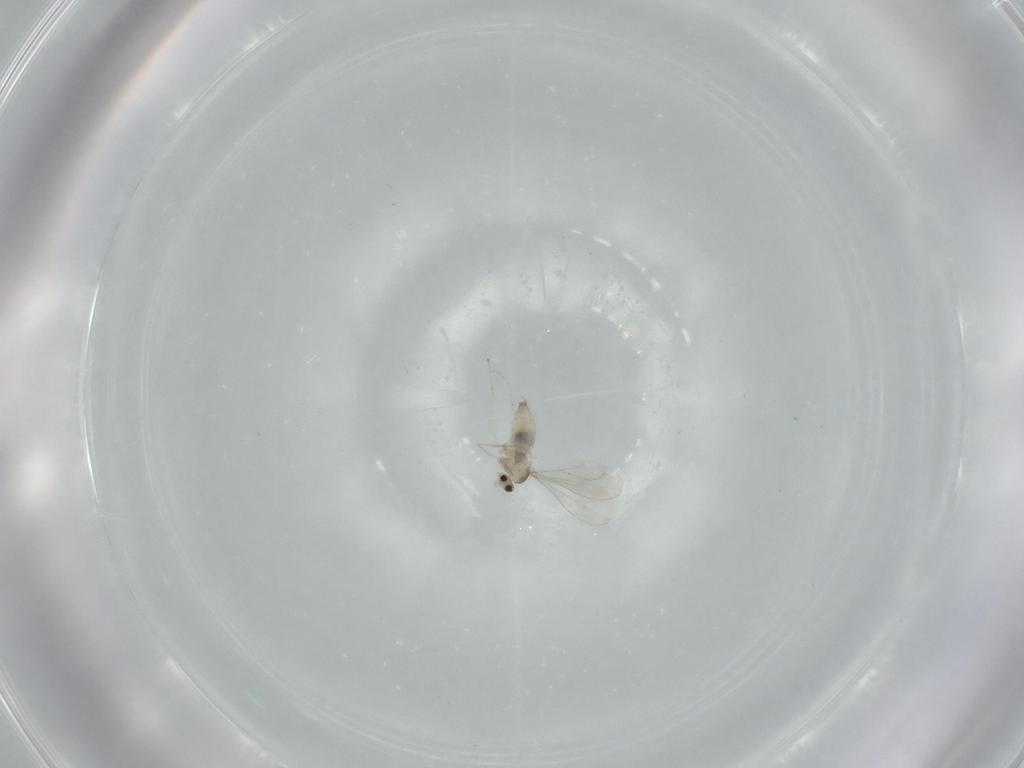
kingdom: Animalia
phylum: Arthropoda
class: Insecta
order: Diptera
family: Cecidomyiidae
